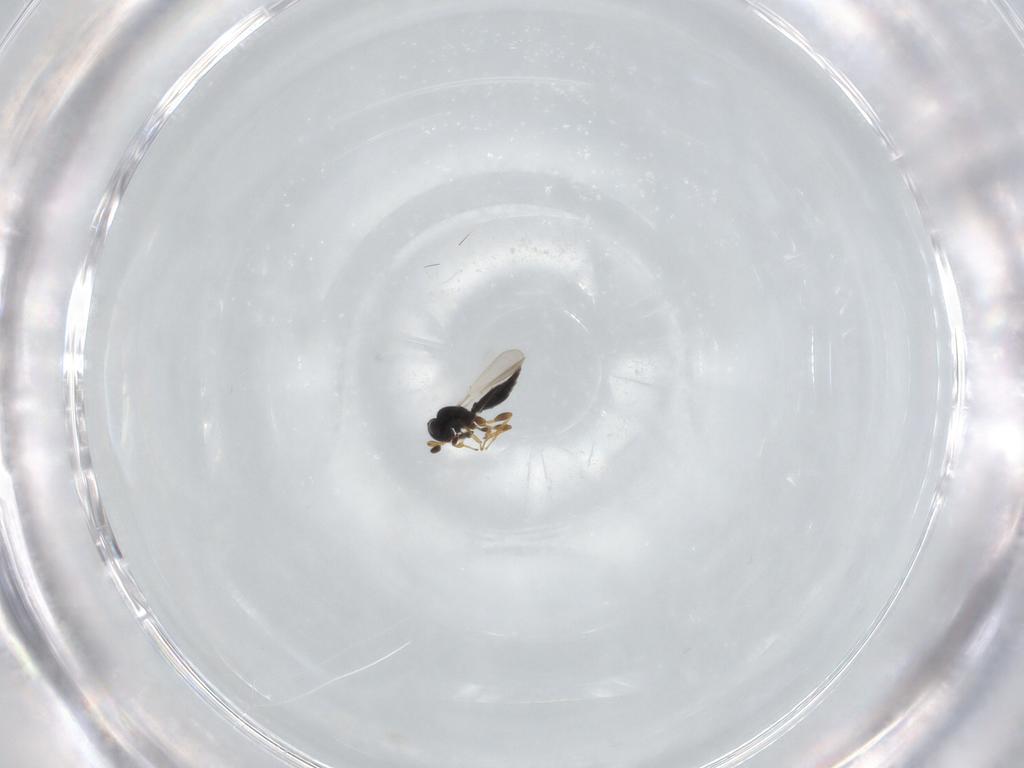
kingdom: Animalia
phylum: Arthropoda
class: Insecta
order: Hymenoptera
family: Platygastridae
